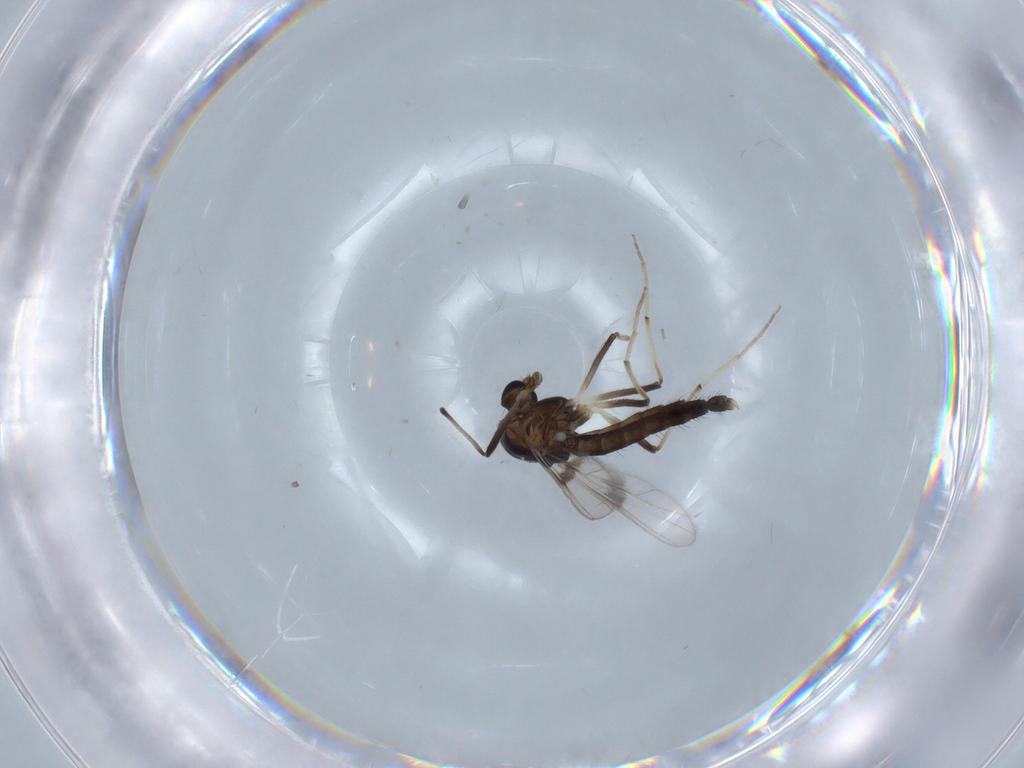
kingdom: Animalia
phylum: Arthropoda
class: Insecta
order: Diptera
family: Chironomidae
